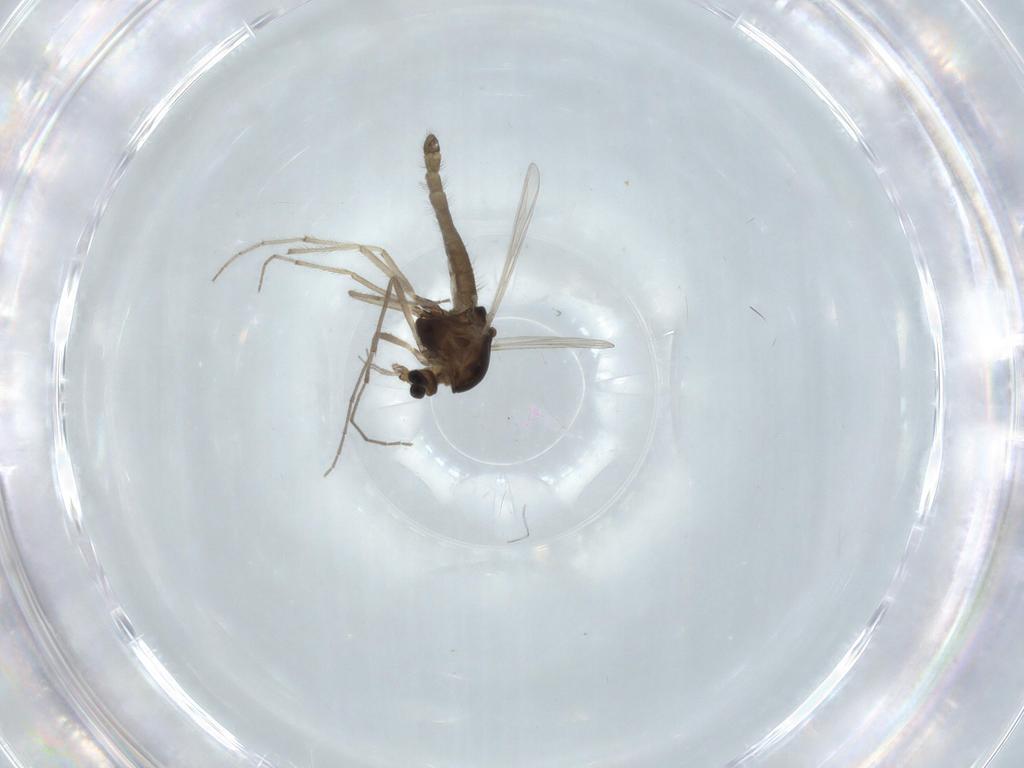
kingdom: Animalia
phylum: Arthropoda
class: Insecta
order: Diptera
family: Chironomidae
